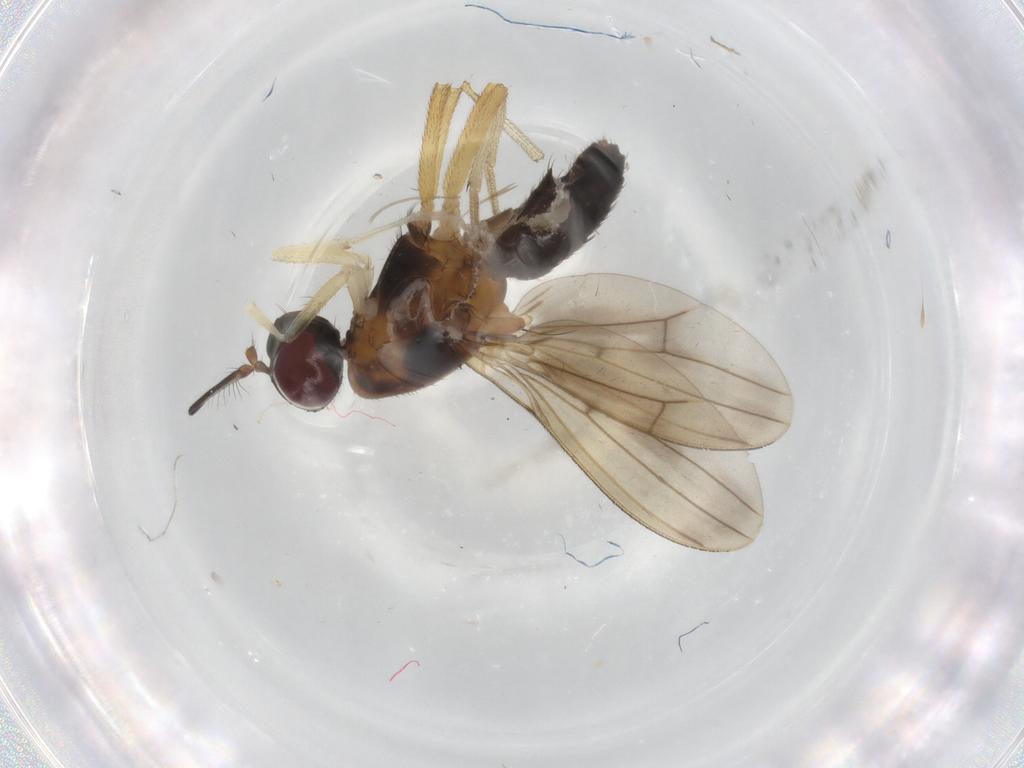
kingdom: Animalia
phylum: Arthropoda
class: Insecta
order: Diptera
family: Lauxaniidae
